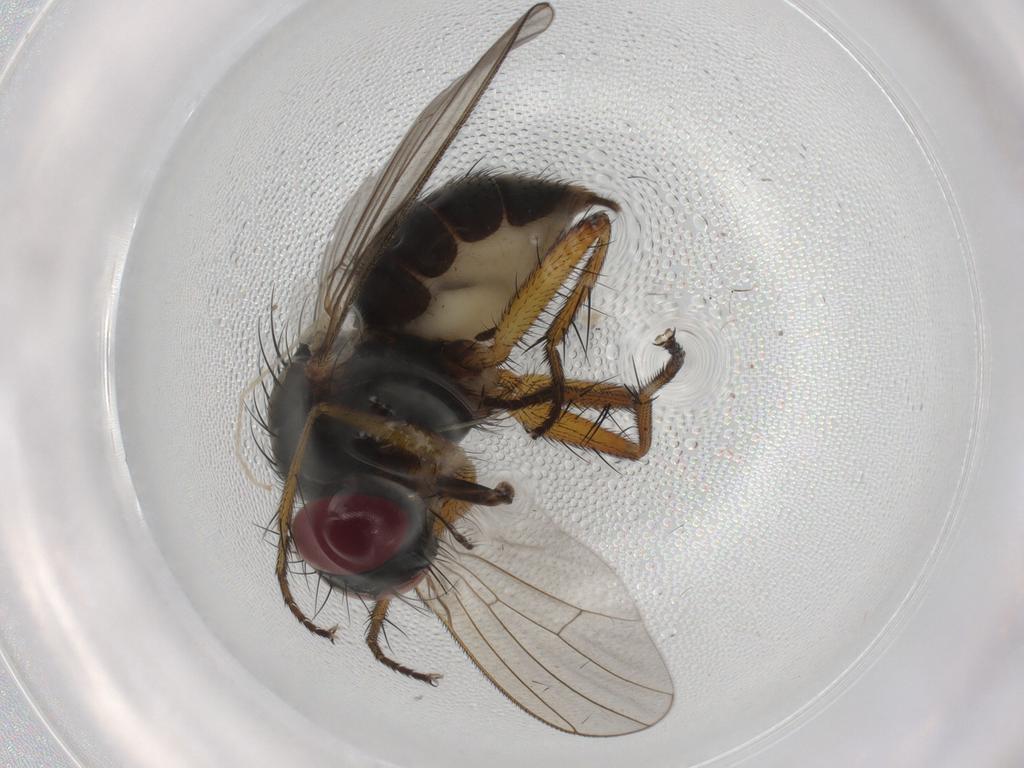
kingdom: Animalia
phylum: Arthropoda
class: Insecta
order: Diptera
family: Muscidae
